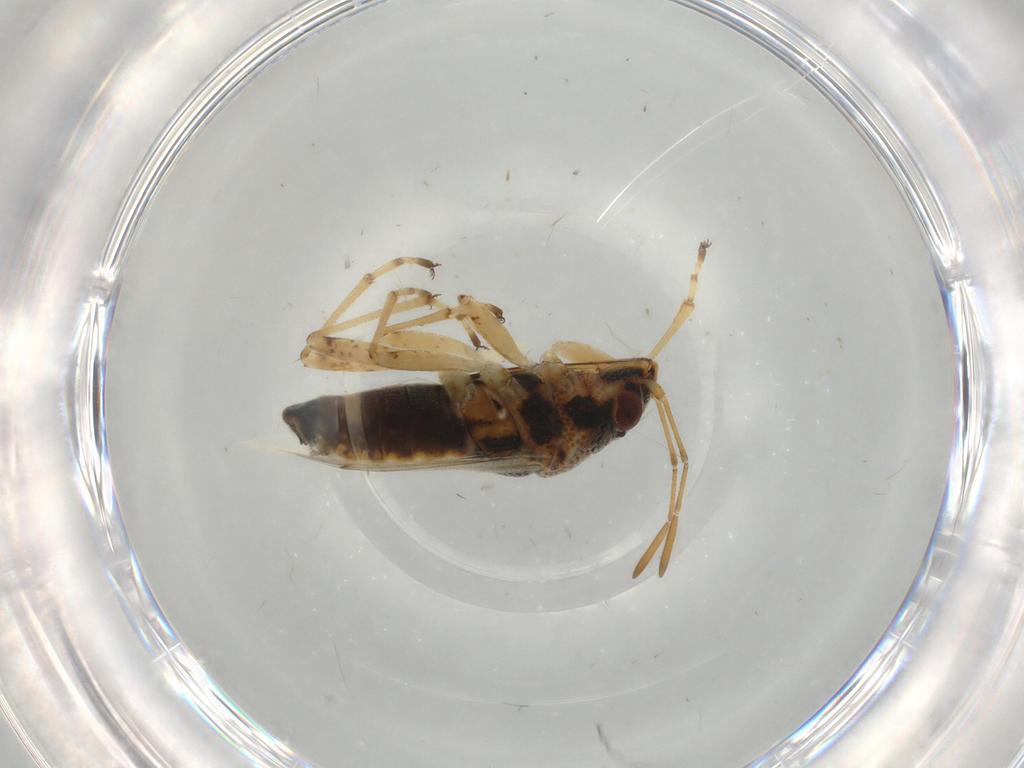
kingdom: Animalia
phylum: Arthropoda
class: Insecta
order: Hemiptera
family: Lygaeidae
